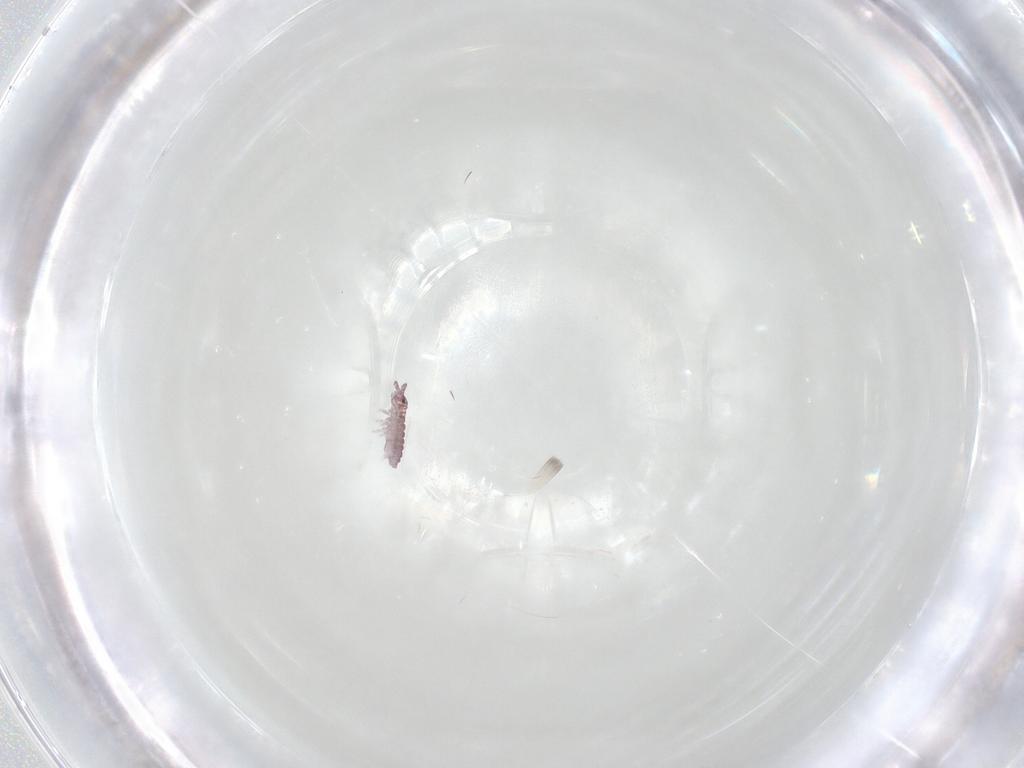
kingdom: Animalia
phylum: Arthropoda
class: Collembola
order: Poduromorpha
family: Hypogastruridae
